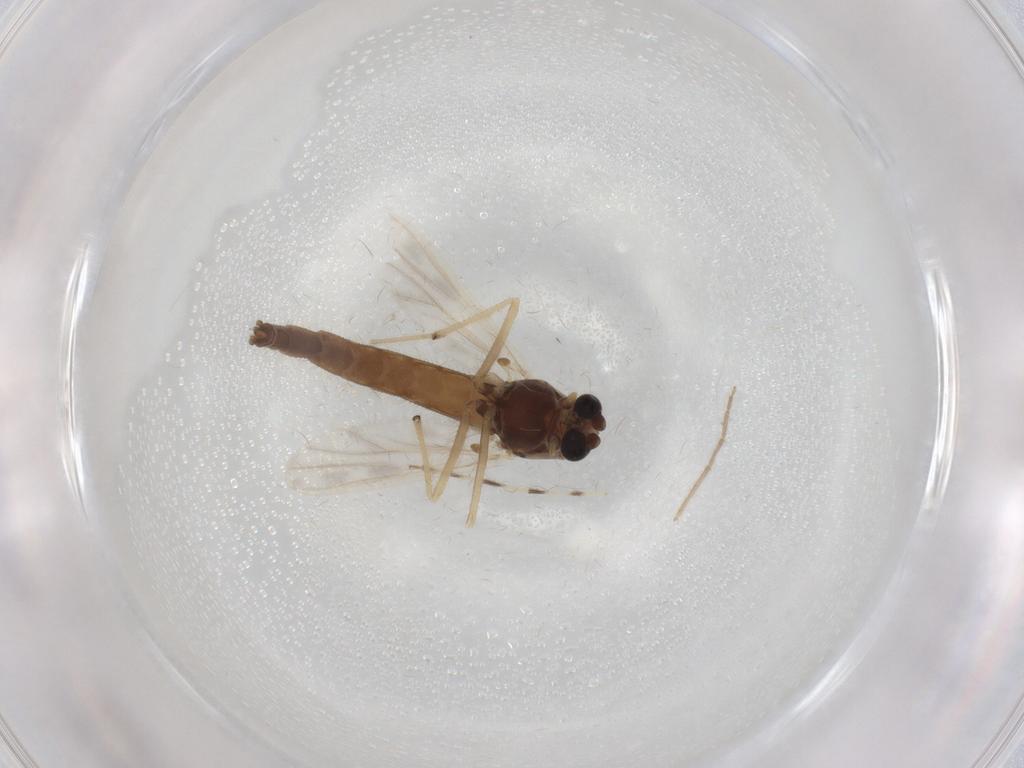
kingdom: Animalia
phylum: Arthropoda
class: Insecta
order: Diptera
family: Chironomidae
